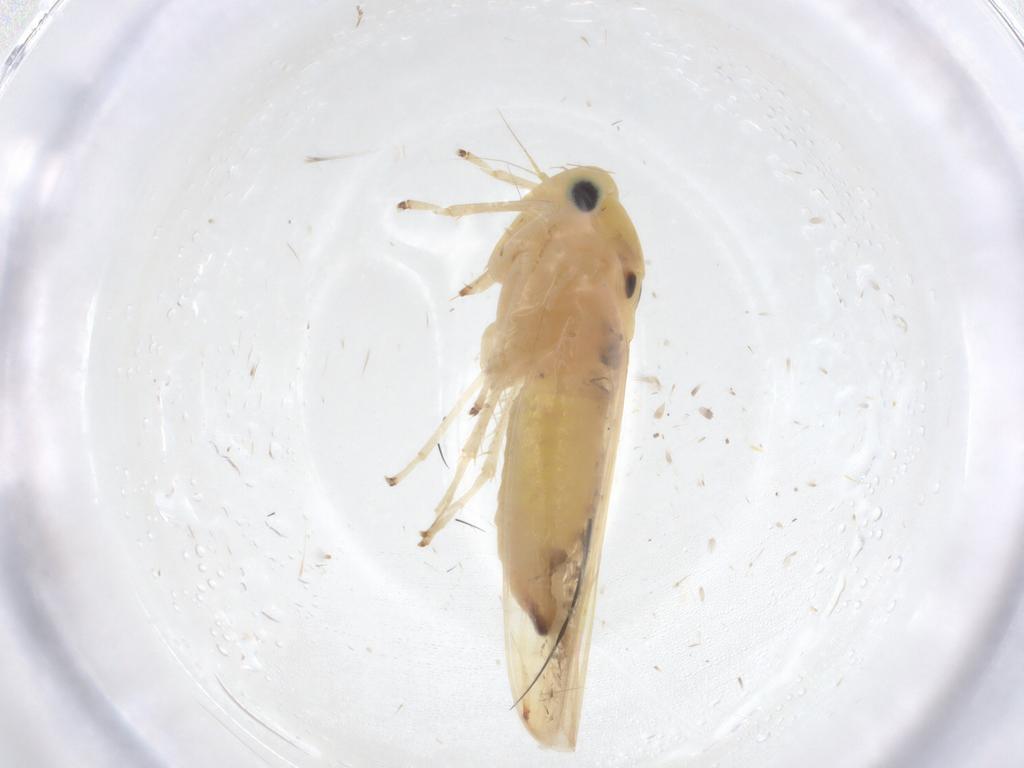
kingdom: Animalia
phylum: Arthropoda
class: Insecta
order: Hemiptera
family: Cicadellidae
